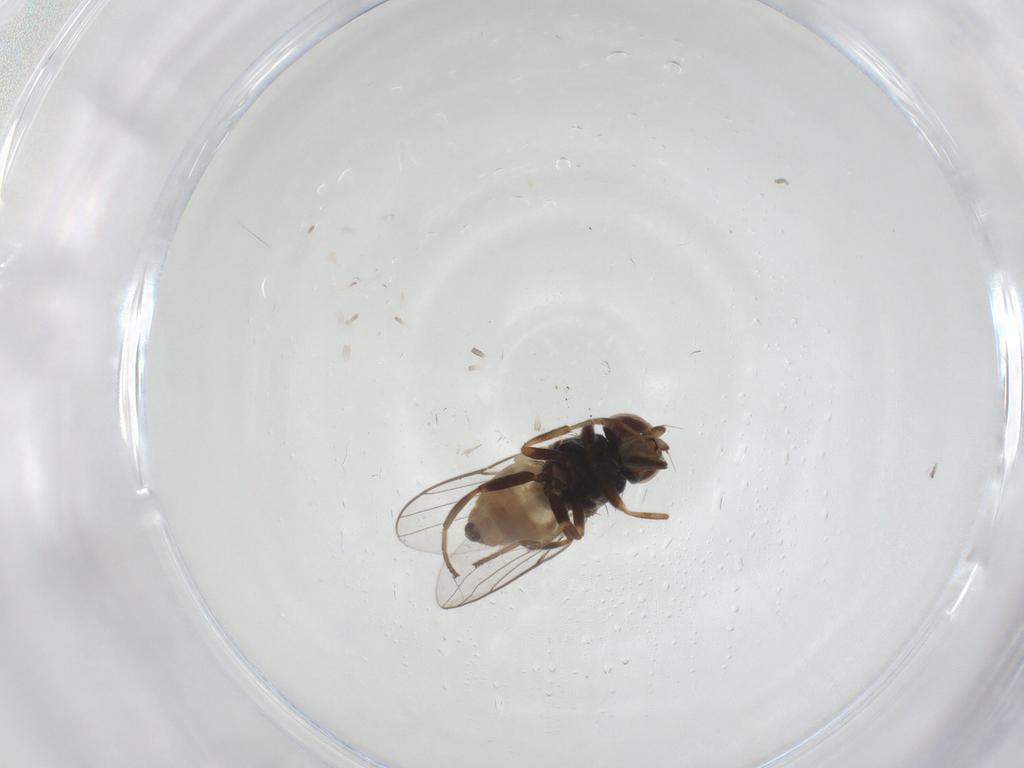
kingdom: Animalia
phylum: Arthropoda
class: Insecta
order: Diptera
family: Chloropidae
